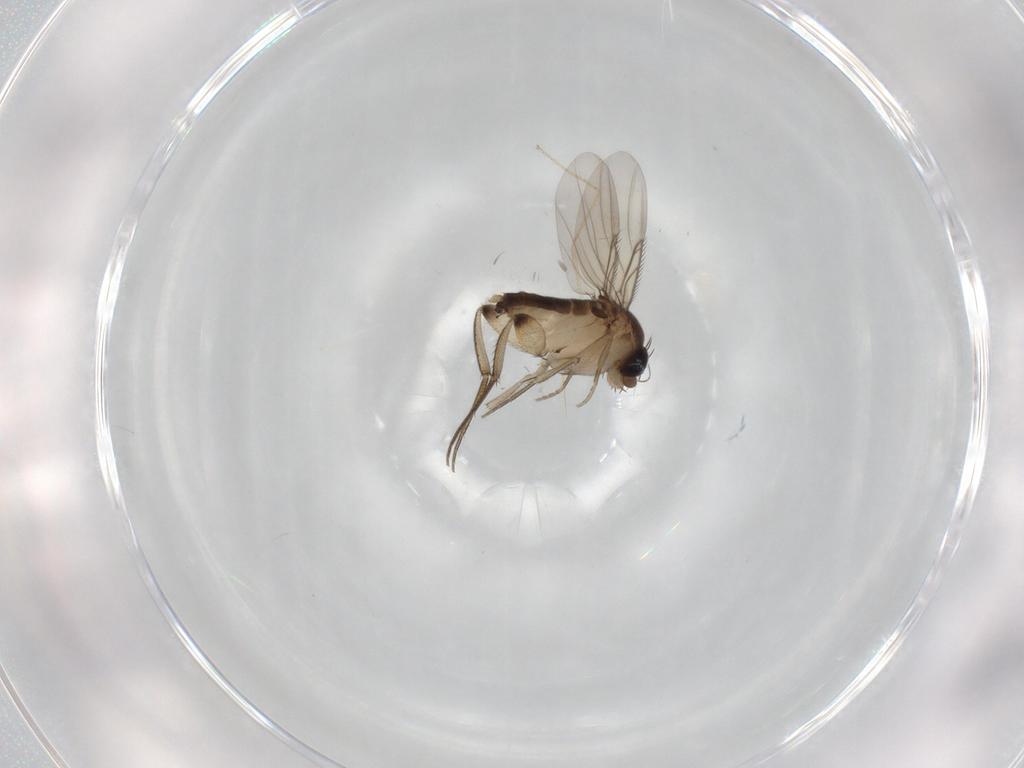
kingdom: Animalia
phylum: Arthropoda
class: Insecta
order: Diptera
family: Phoridae
